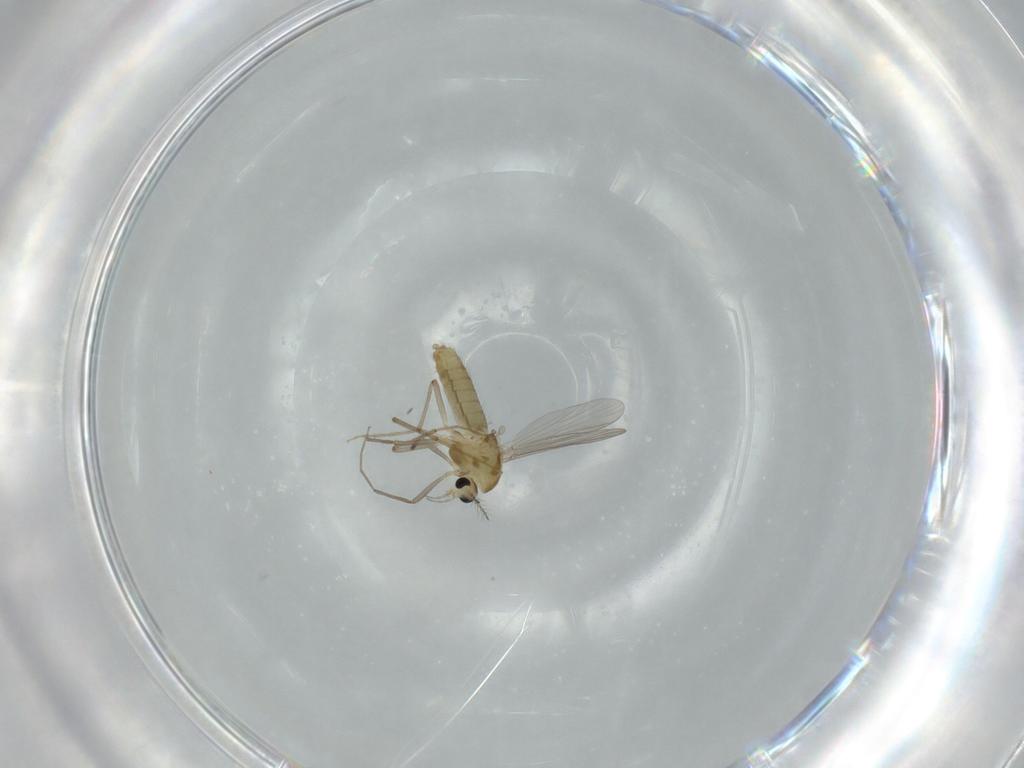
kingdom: Animalia
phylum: Arthropoda
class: Insecta
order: Diptera
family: Chironomidae
